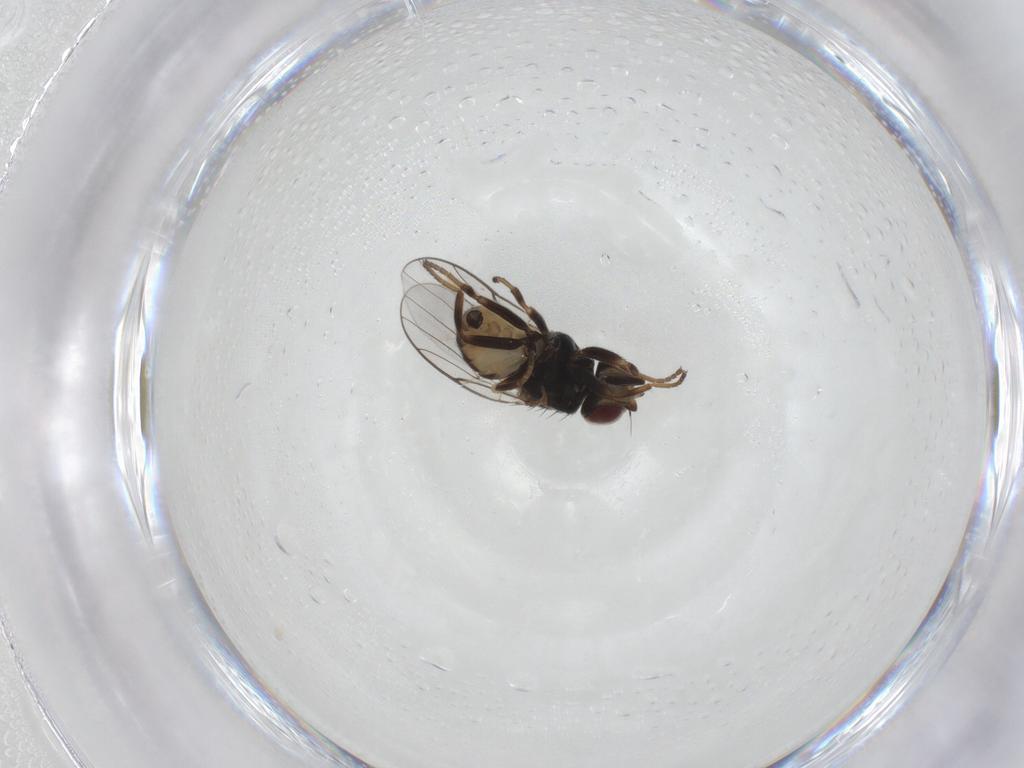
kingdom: Animalia
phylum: Arthropoda
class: Insecta
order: Diptera
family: Chloropidae
